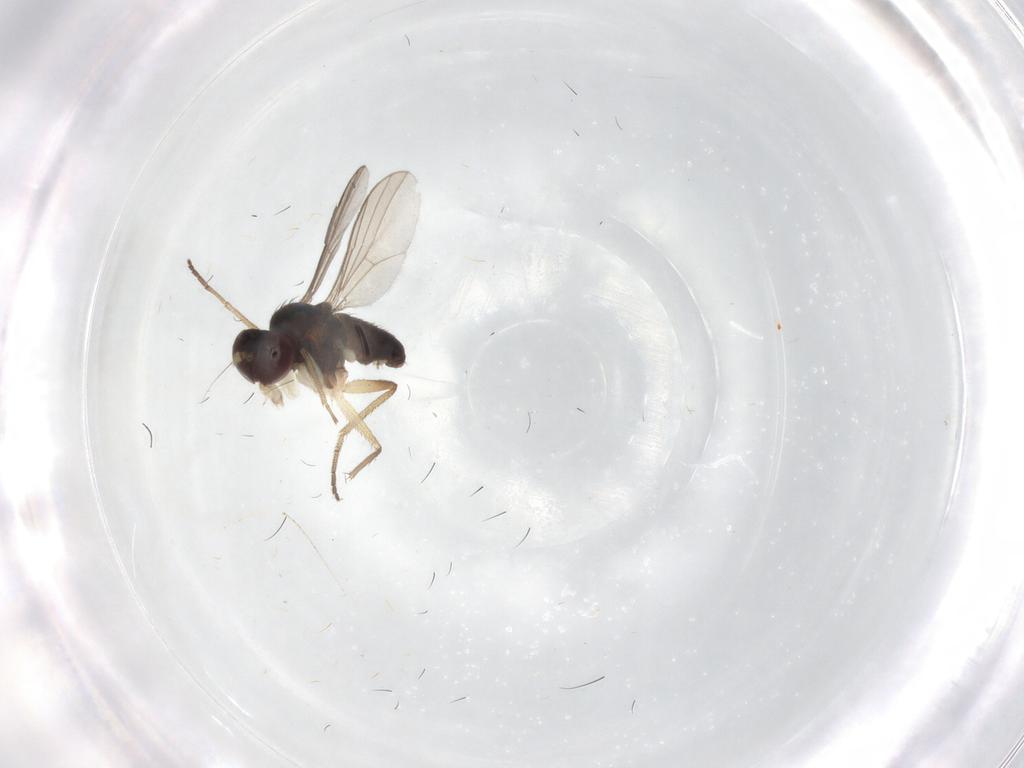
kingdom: Animalia
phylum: Arthropoda
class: Insecta
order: Diptera
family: Dolichopodidae
